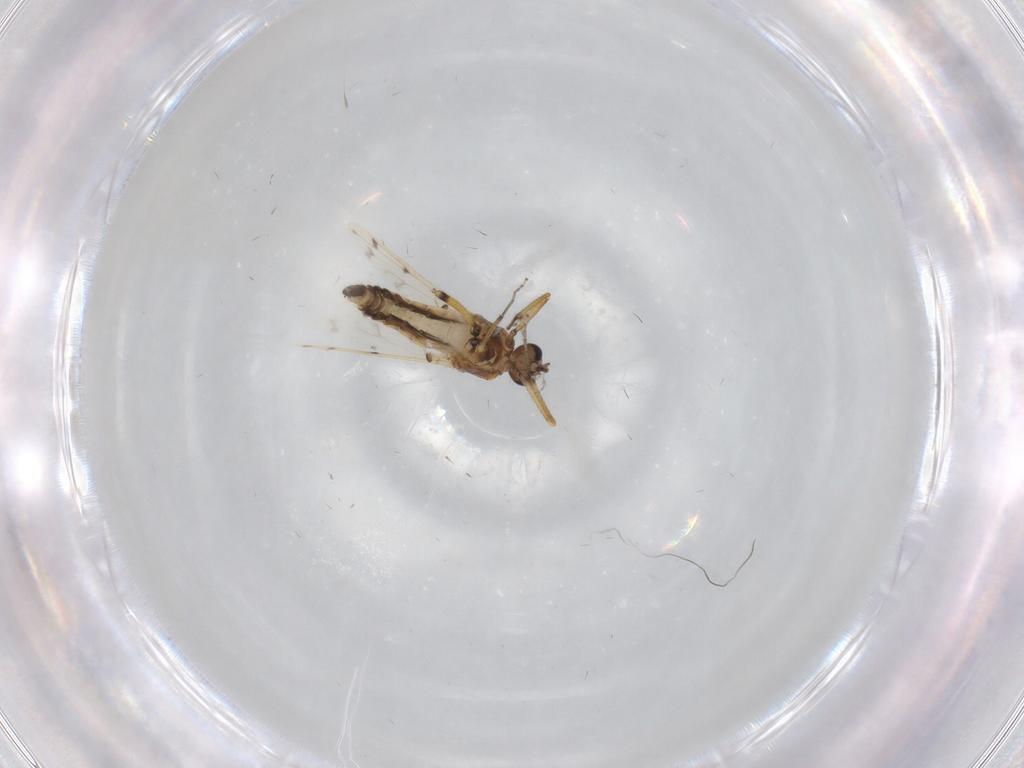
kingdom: Animalia
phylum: Arthropoda
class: Insecta
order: Diptera
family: Ceratopogonidae
